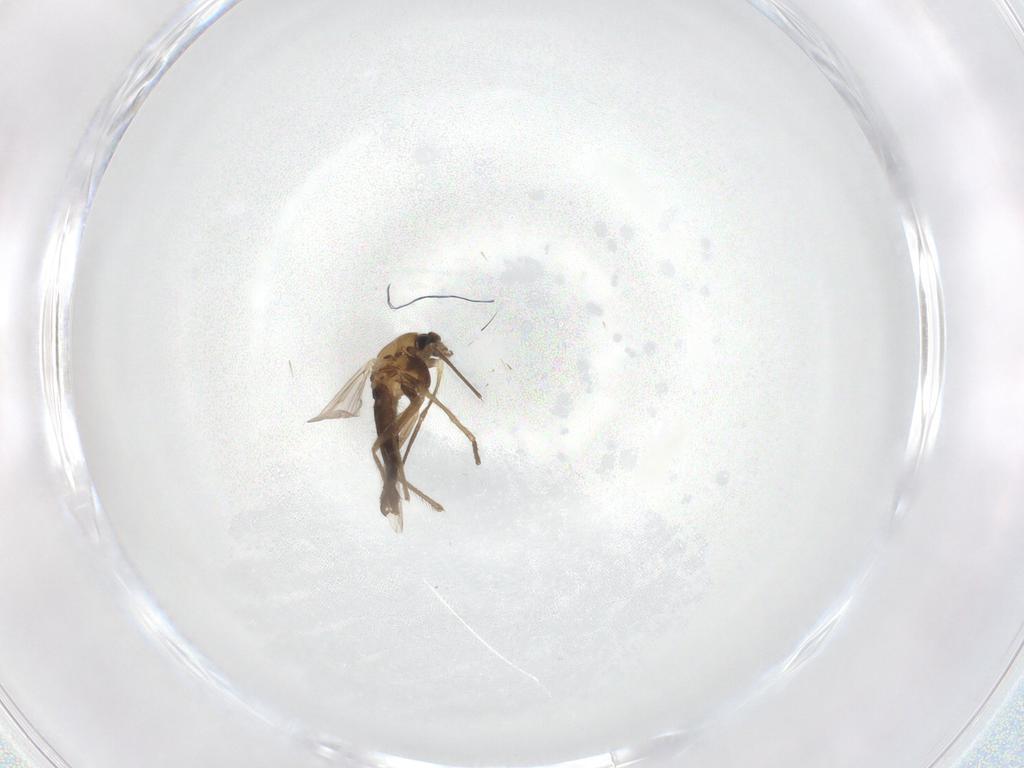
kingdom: Animalia
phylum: Arthropoda
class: Insecta
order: Diptera
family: Chironomidae
